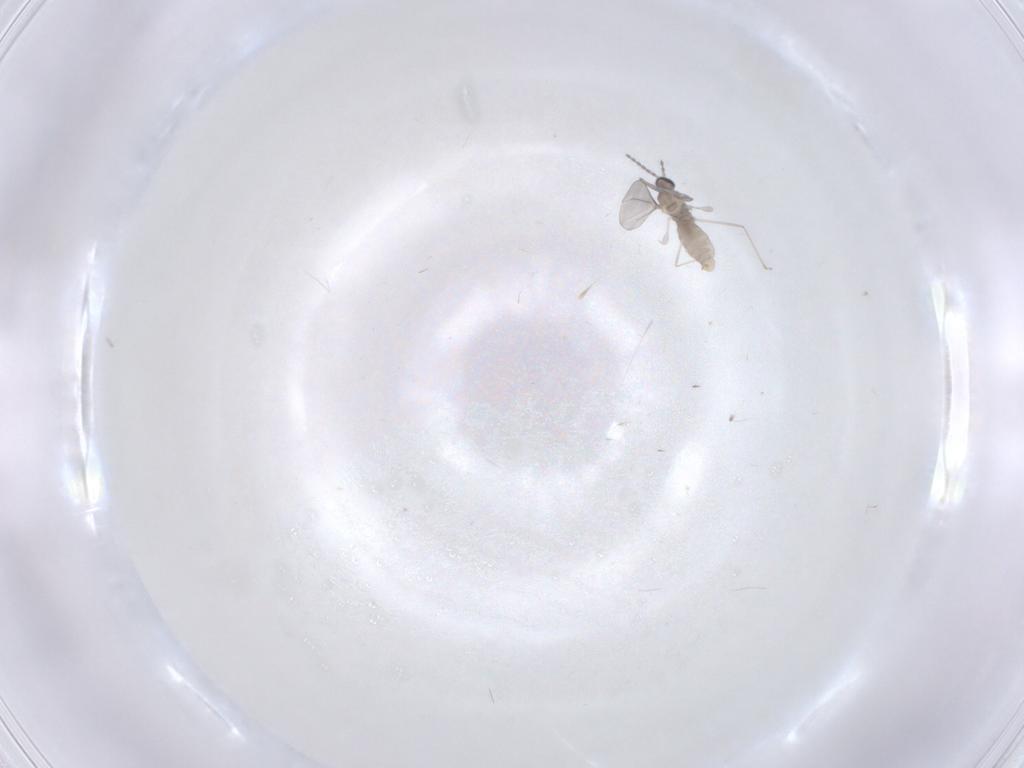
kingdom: Animalia
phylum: Arthropoda
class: Insecta
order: Diptera
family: Cecidomyiidae
